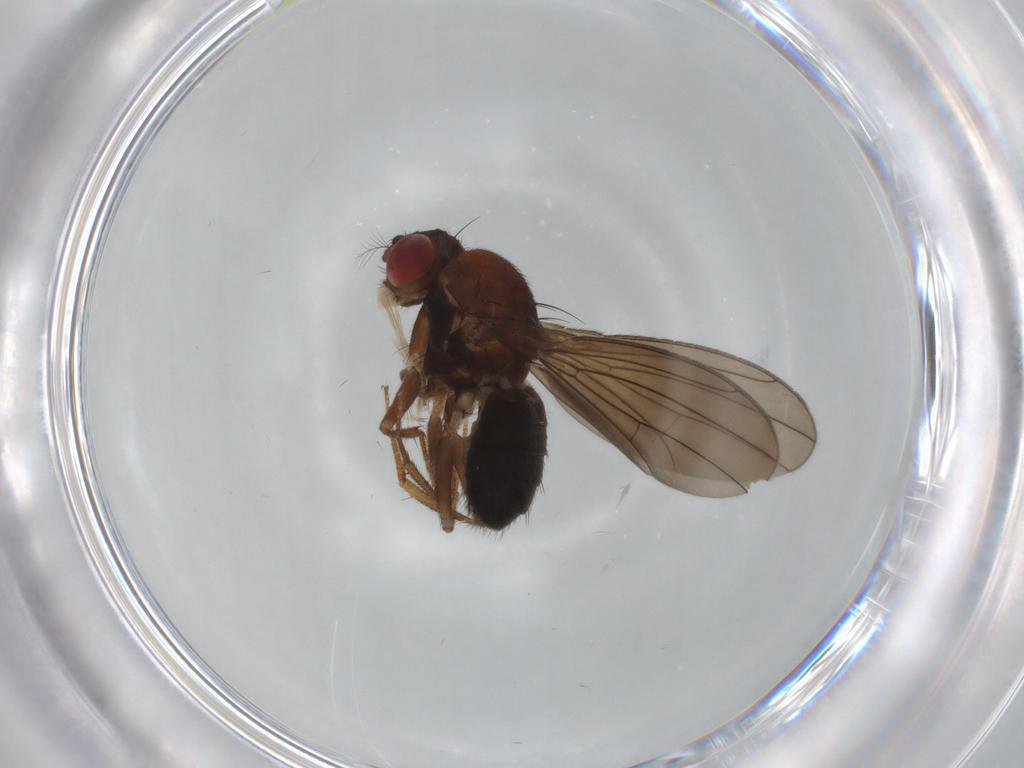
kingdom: Animalia
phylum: Arthropoda
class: Insecta
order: Diptera
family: Drosophilidae
